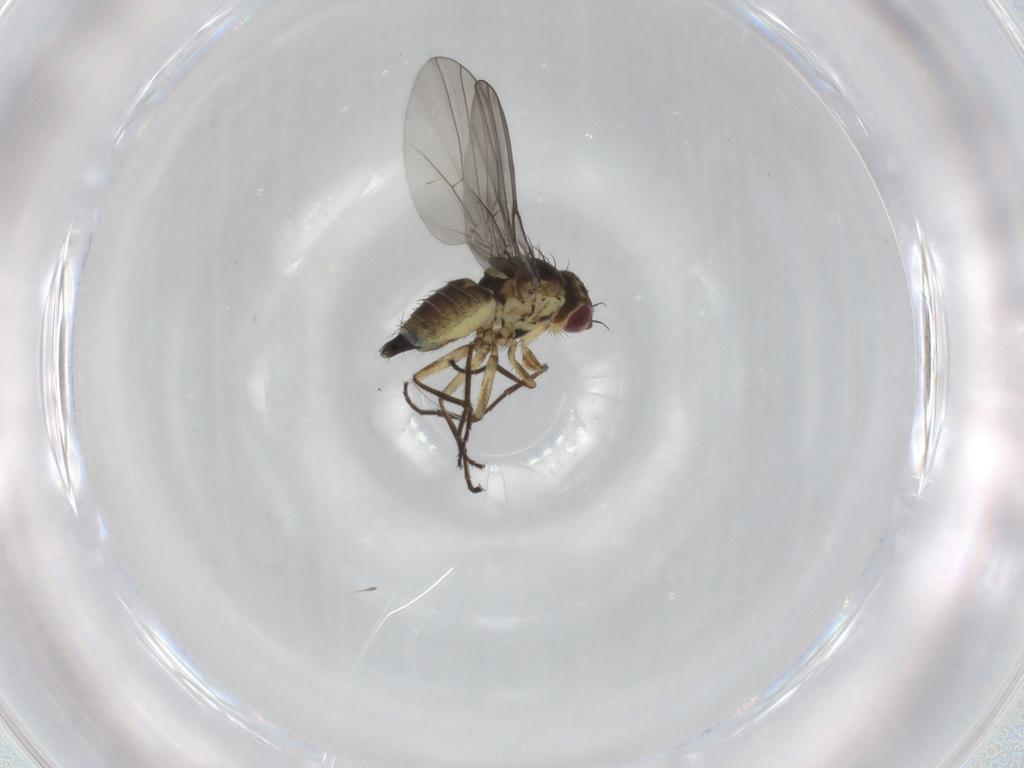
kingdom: Animalia
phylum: Arthropoda
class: Insecta
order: Diptera
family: Agromyzidae
